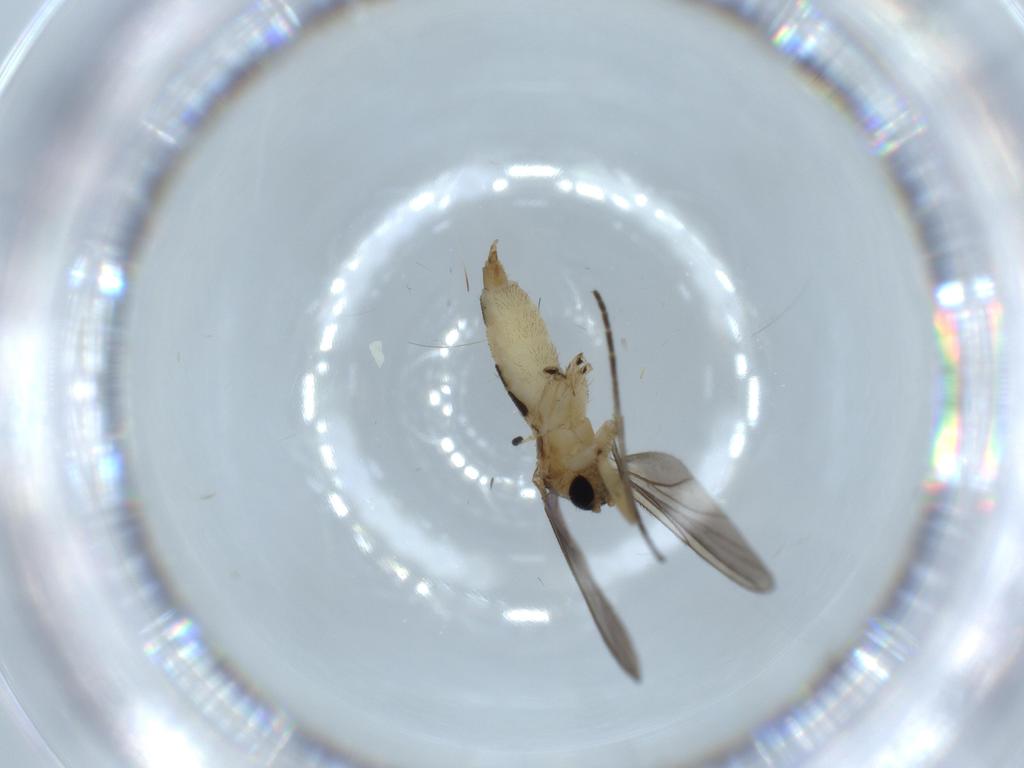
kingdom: Animalia
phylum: Arthropoda
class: Insecta
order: Diptera
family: Sciaridae
